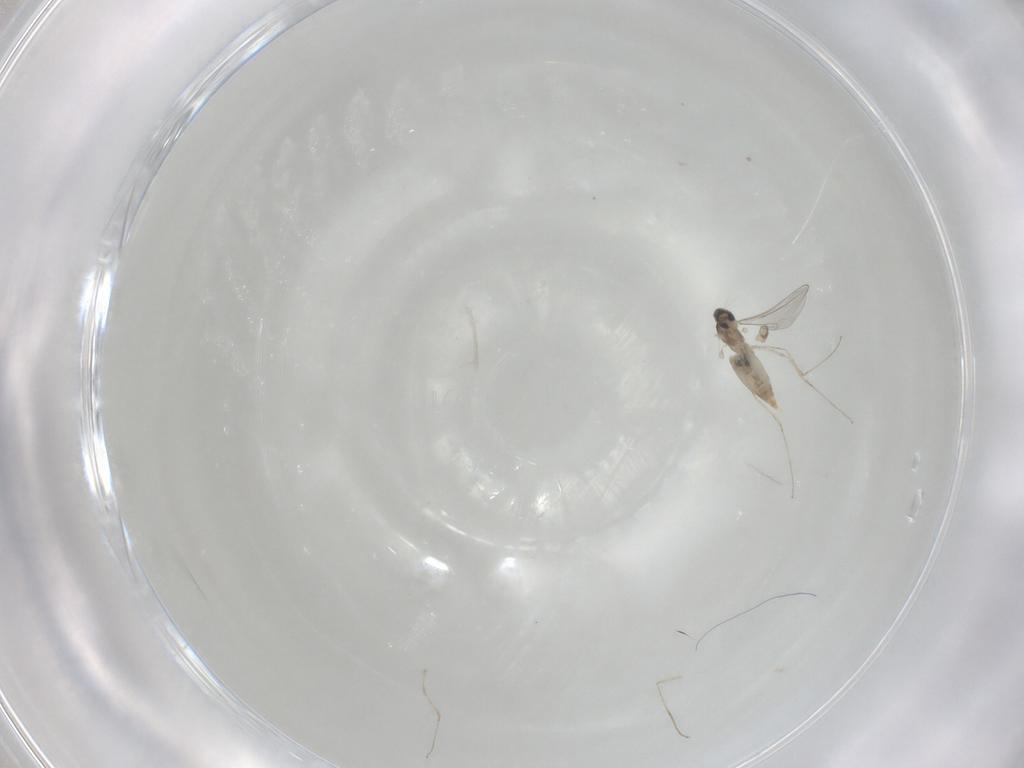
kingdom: Animalia
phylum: Arthropoda
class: Insecta
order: Diptera
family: Cecidomyiidae
